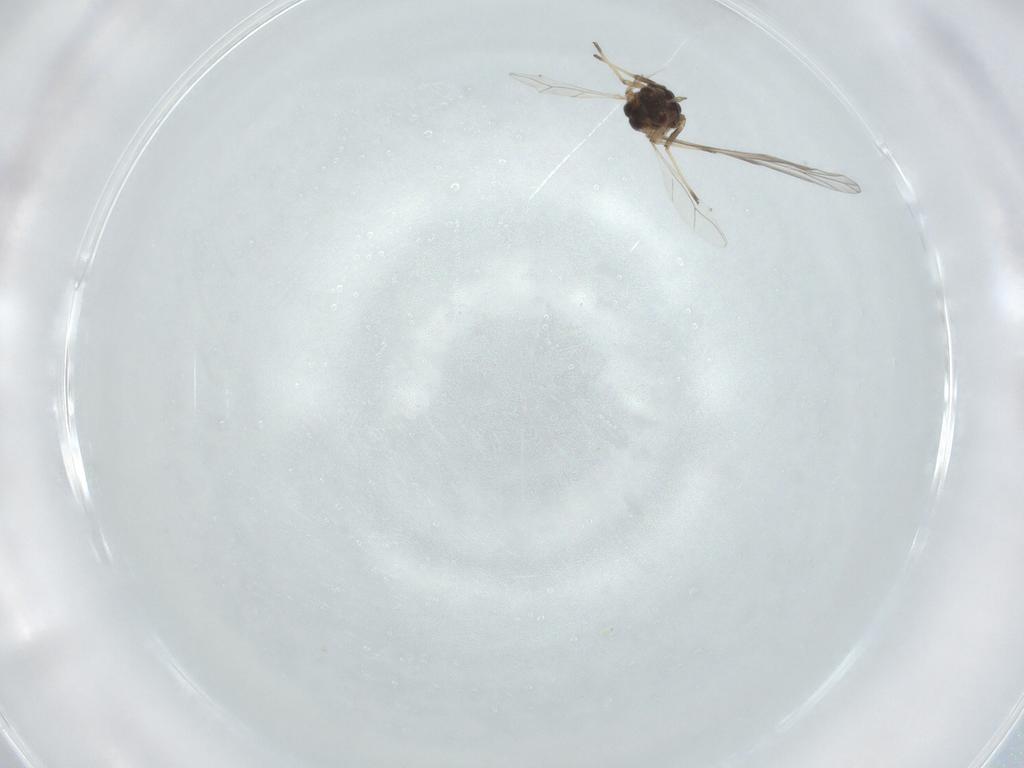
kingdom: Animalia
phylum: Arthropoda
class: Insecta
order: Hemiptera
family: Aphididae
